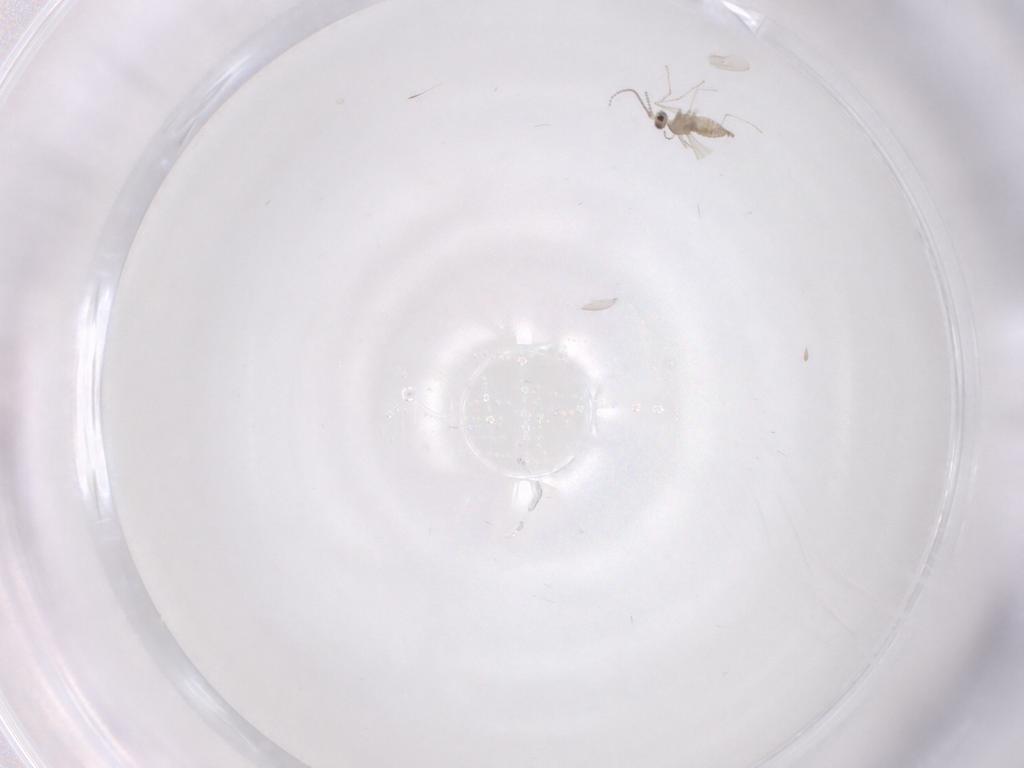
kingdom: Animalia
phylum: Arthropoda
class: Insecta
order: Diptera
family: Cecidomyiidae
